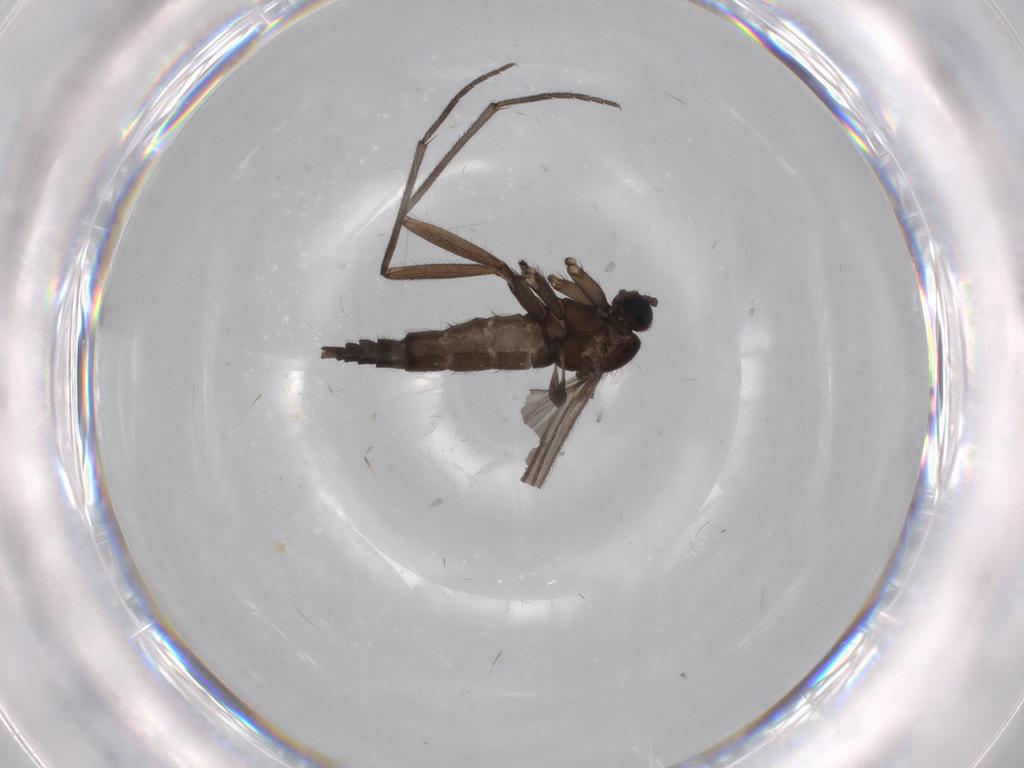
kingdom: Animalia
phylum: Arthropoda
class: Insecta
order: Diptera
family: Sciaridae
